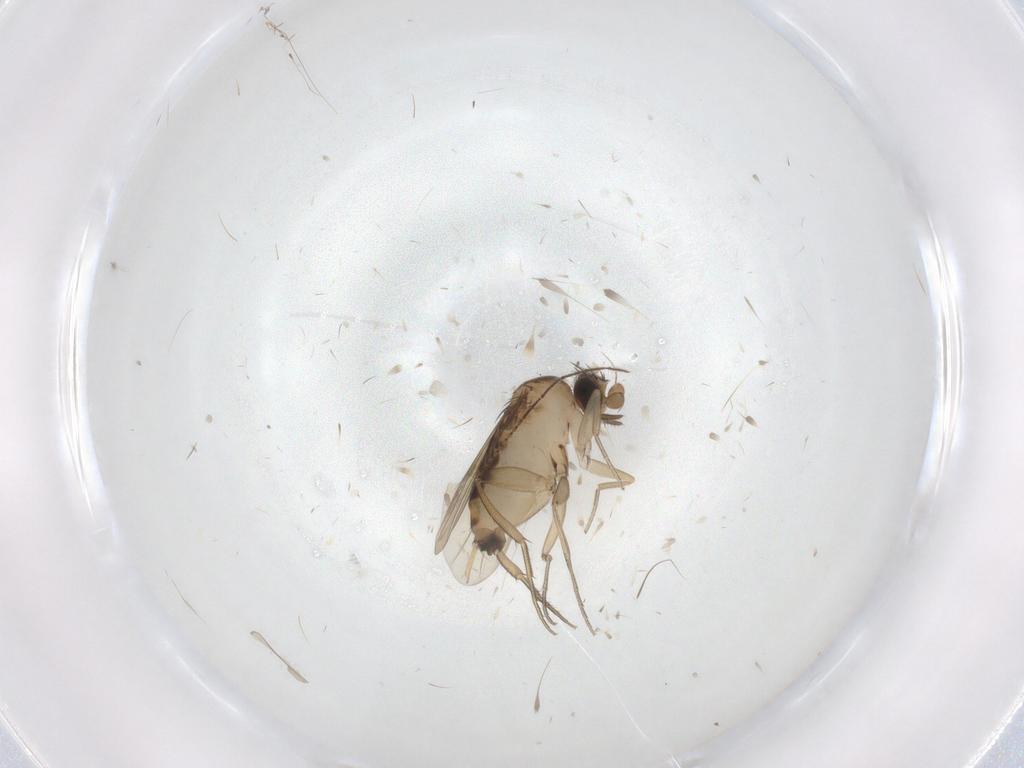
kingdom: Animalia
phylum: Arthropoda
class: Insecta
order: Diptera
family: Phoridae
